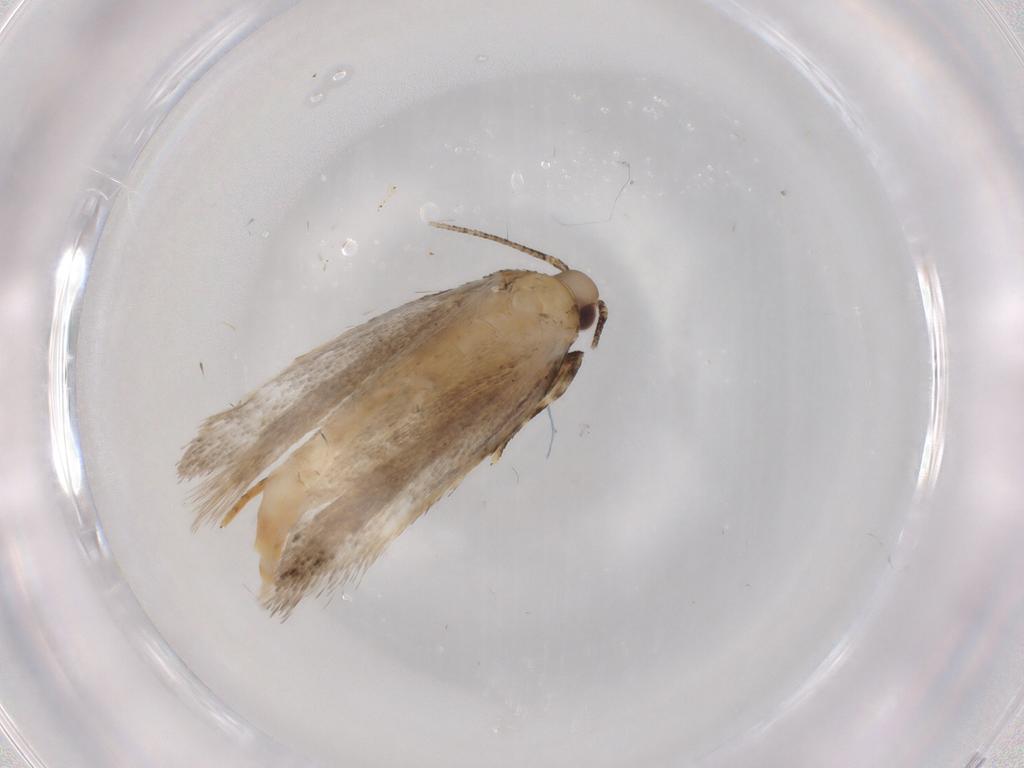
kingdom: Animalia
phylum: Arthropoda
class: Insecta
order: Lepidoptera
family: Autostichidae
